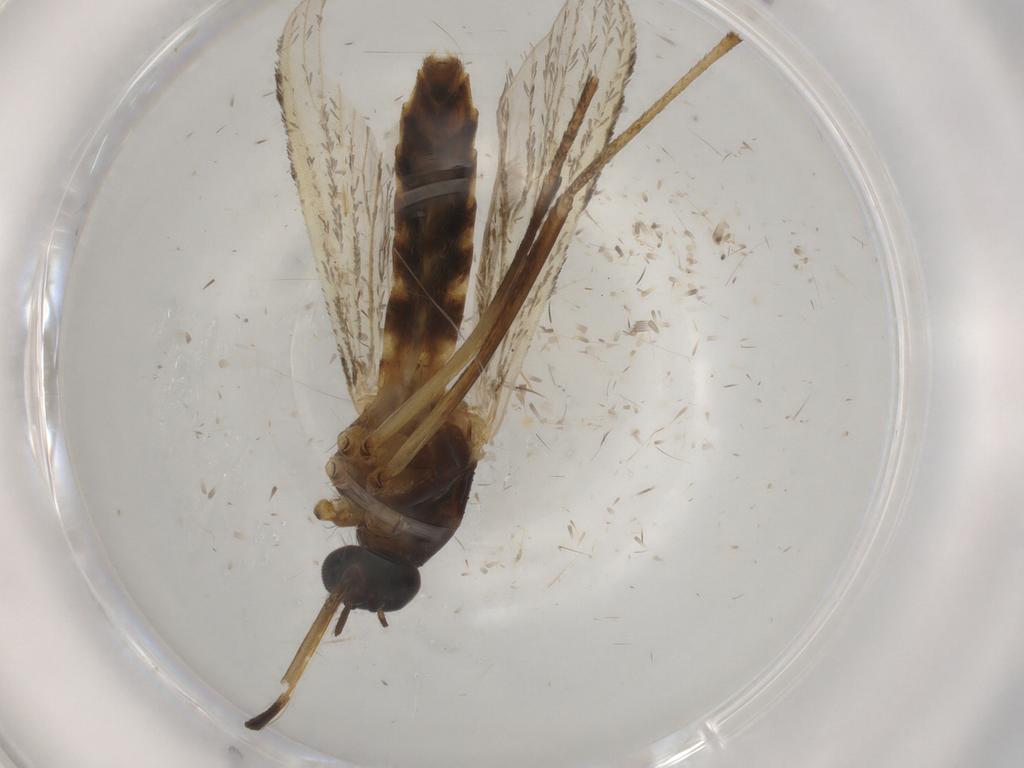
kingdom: Animalia
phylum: Arthropoda
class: Insecta
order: Diptera
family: Ceratopogonidae
